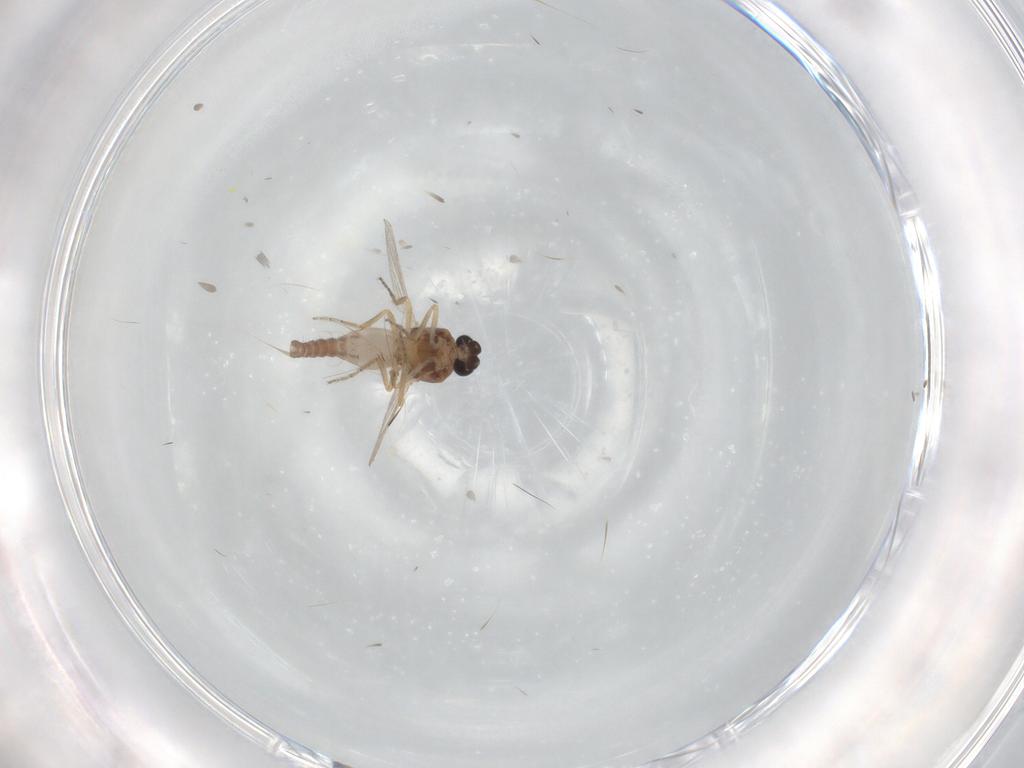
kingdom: Animalia
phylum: Arthropoda
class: Insecta
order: Diptera
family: Ceratopogonidae
